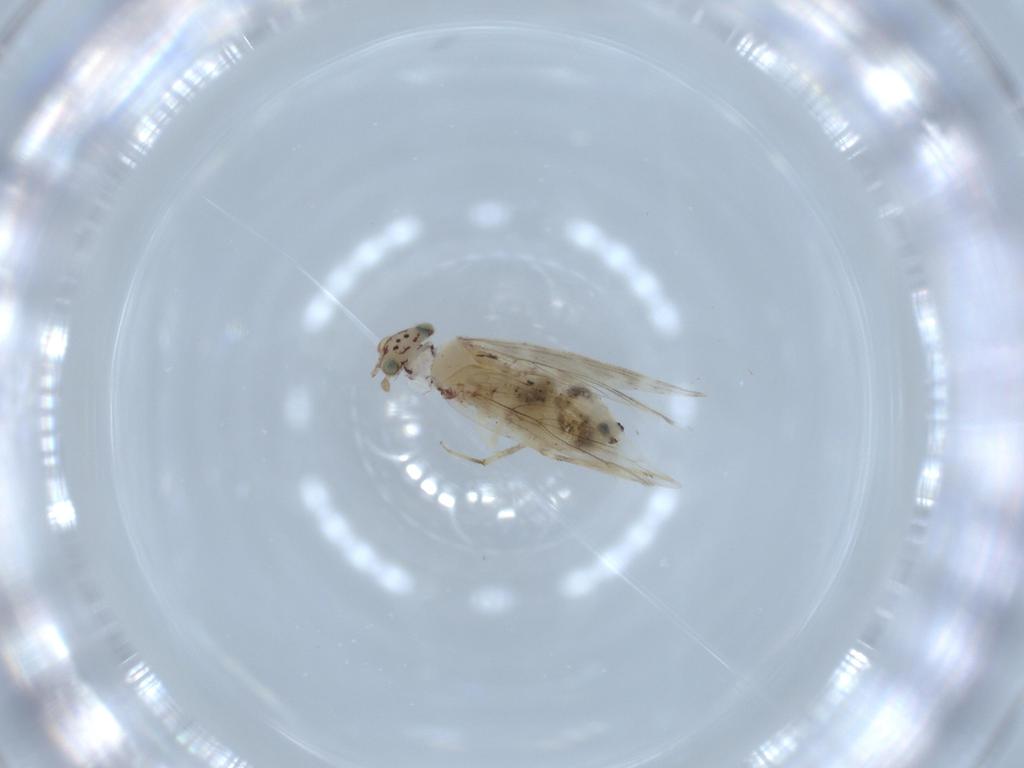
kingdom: Animalia
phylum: Arthropoda
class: Insecta
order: Psocodea
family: Lepidopsocidae
